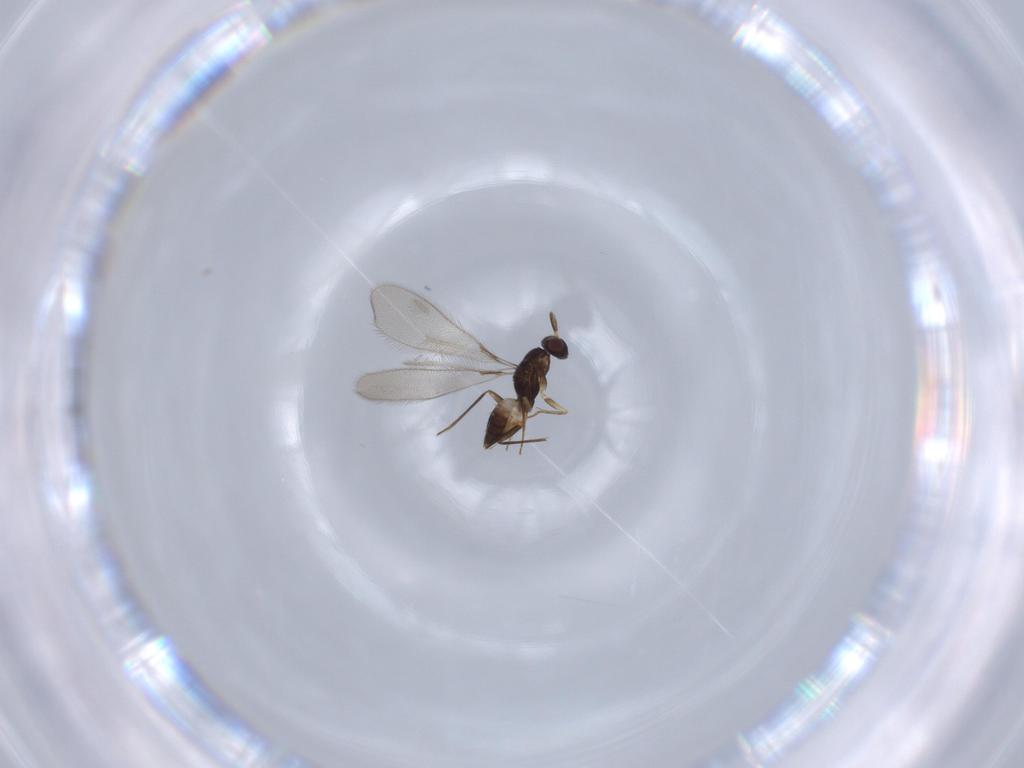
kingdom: Animalia
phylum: Arthropoda
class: Insecta
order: Hymenoptera
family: Mymaridae
